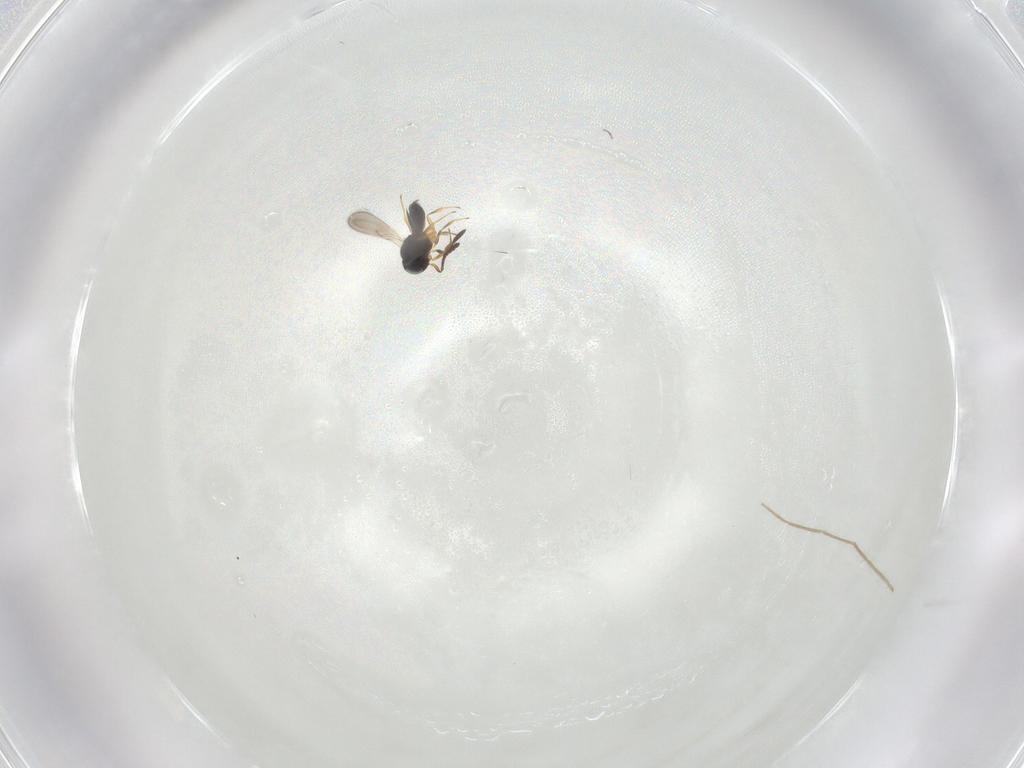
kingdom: Animalia
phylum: Arthropoda
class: Insecta
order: Hymenoptera
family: Scelionidae
